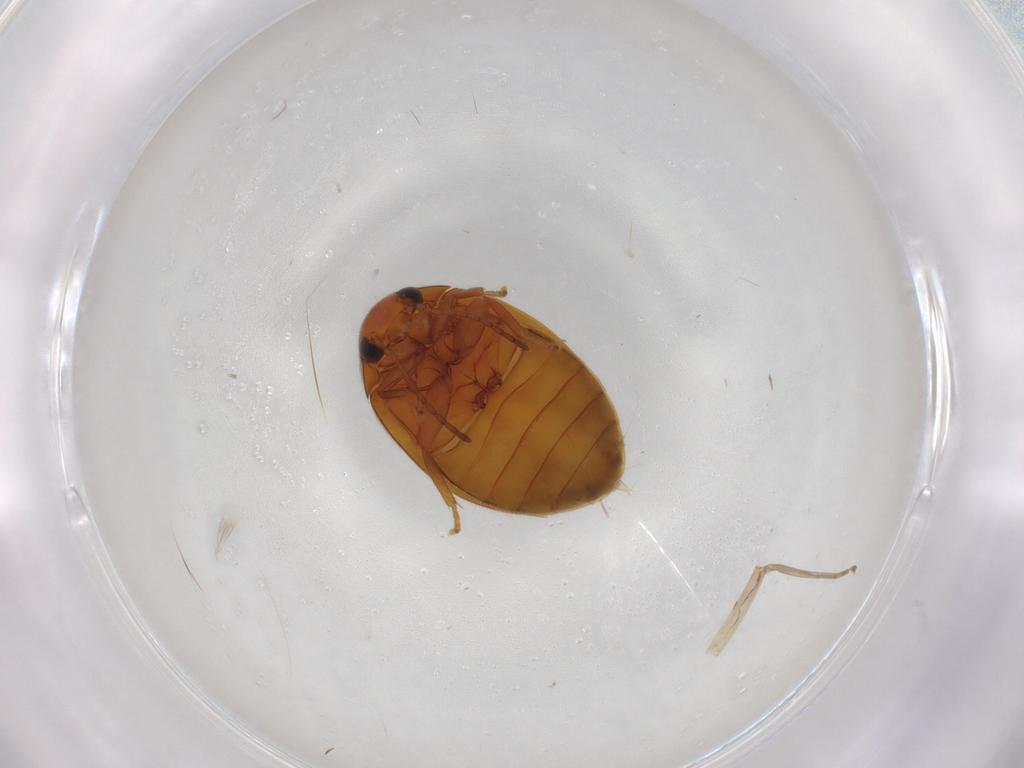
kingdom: Animalia
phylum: Arthropoda
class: Insecta
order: Coleoptera
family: Scirtidae
